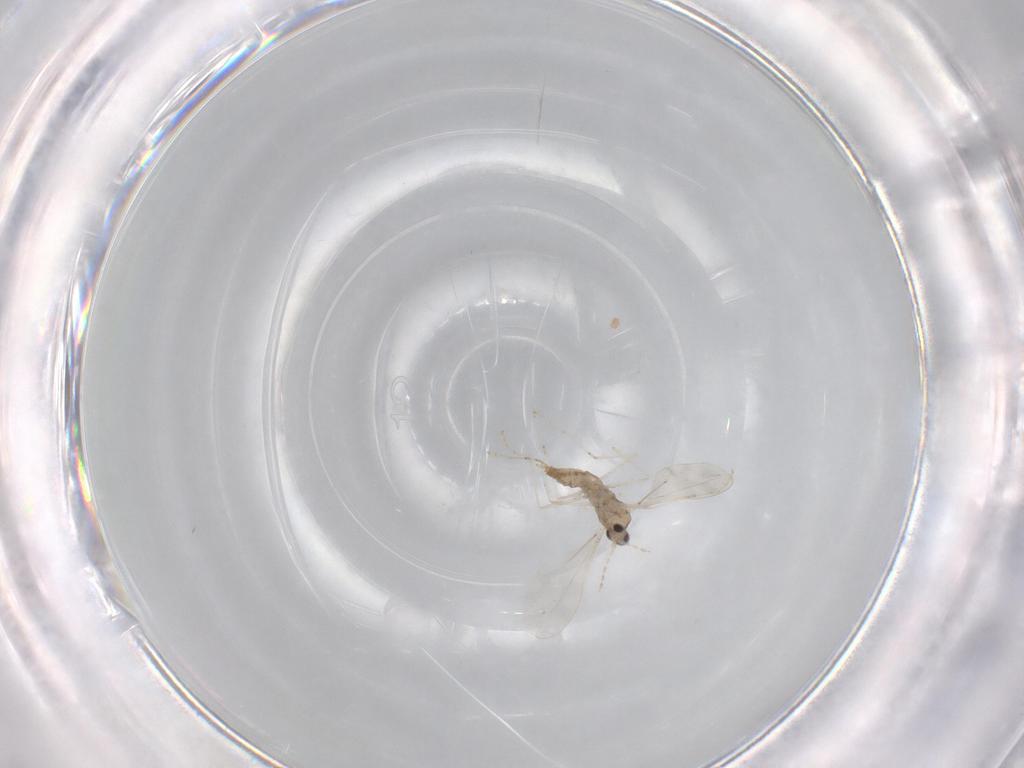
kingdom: Animalia
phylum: Arthropoda
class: Insecta
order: Diptera
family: Cecidomyiidae
